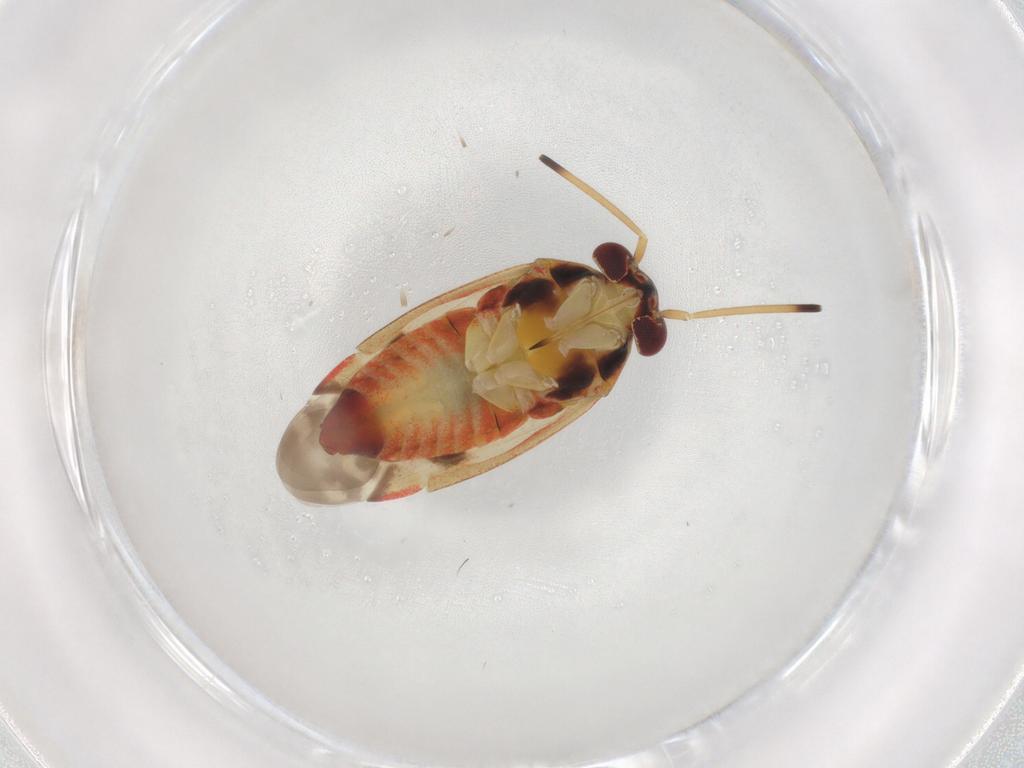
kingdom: Animalia
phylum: Arthropoda
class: Insecta
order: Hemiptera
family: Miridae
